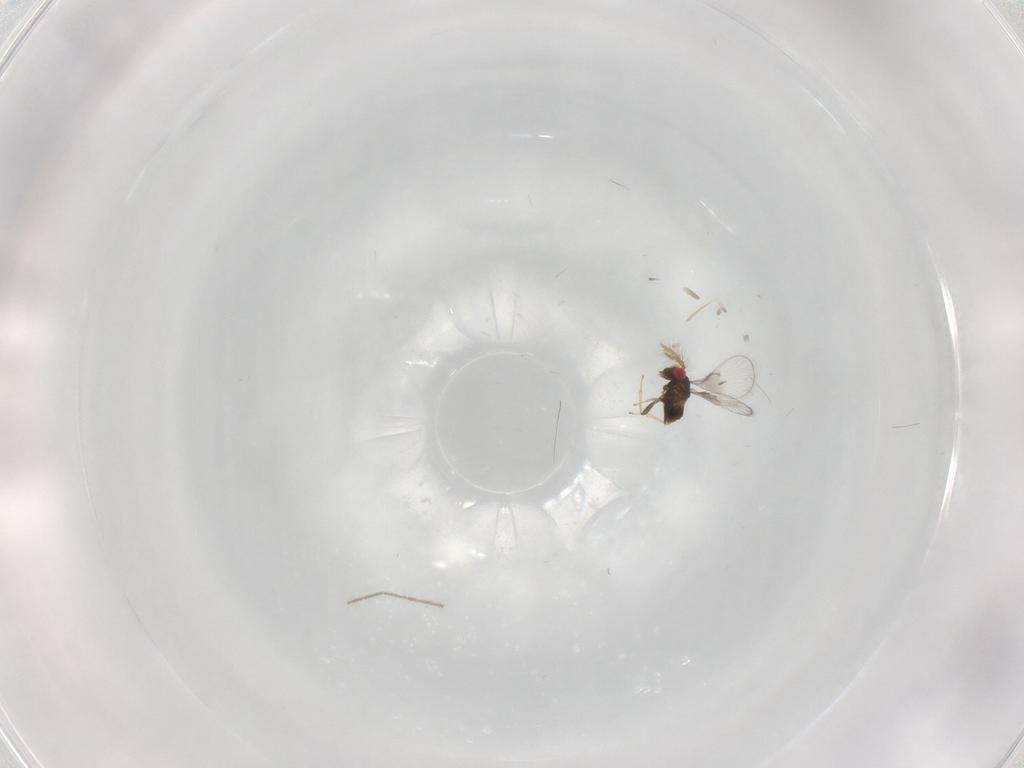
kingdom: Animalia
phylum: Arthropoda
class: Insecta
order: Hymenoptera
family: Trichogrammatidae
